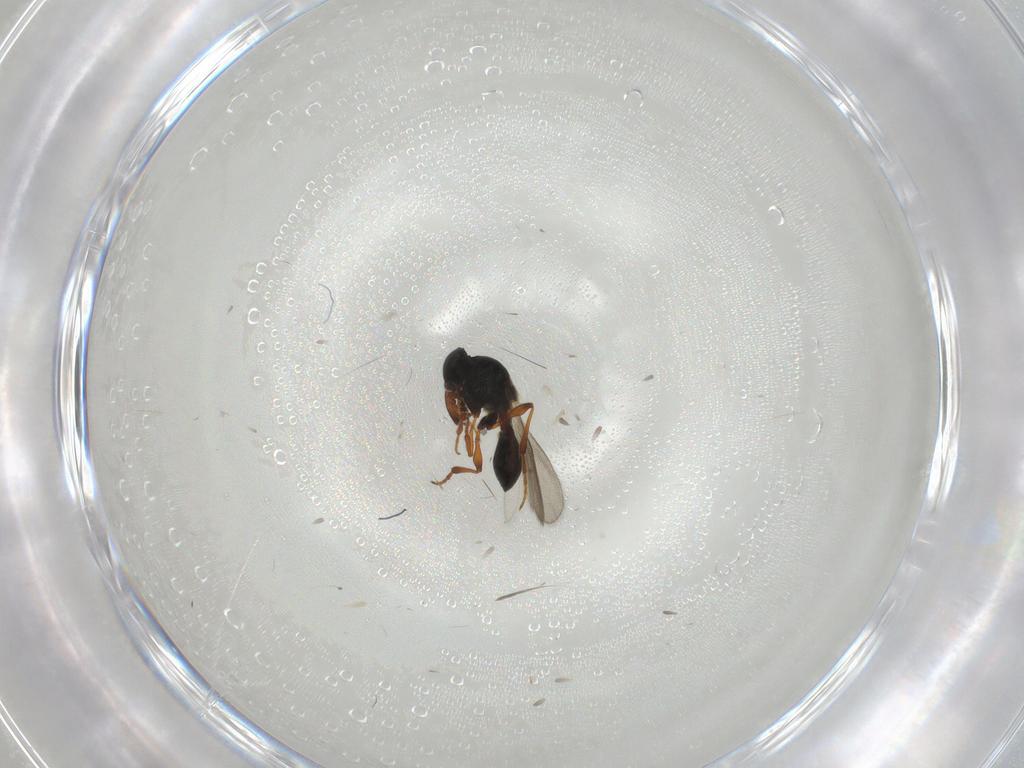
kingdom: Animalia
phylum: Arthropoda
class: Insecta
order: Hymenoptera
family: Platygastridae
